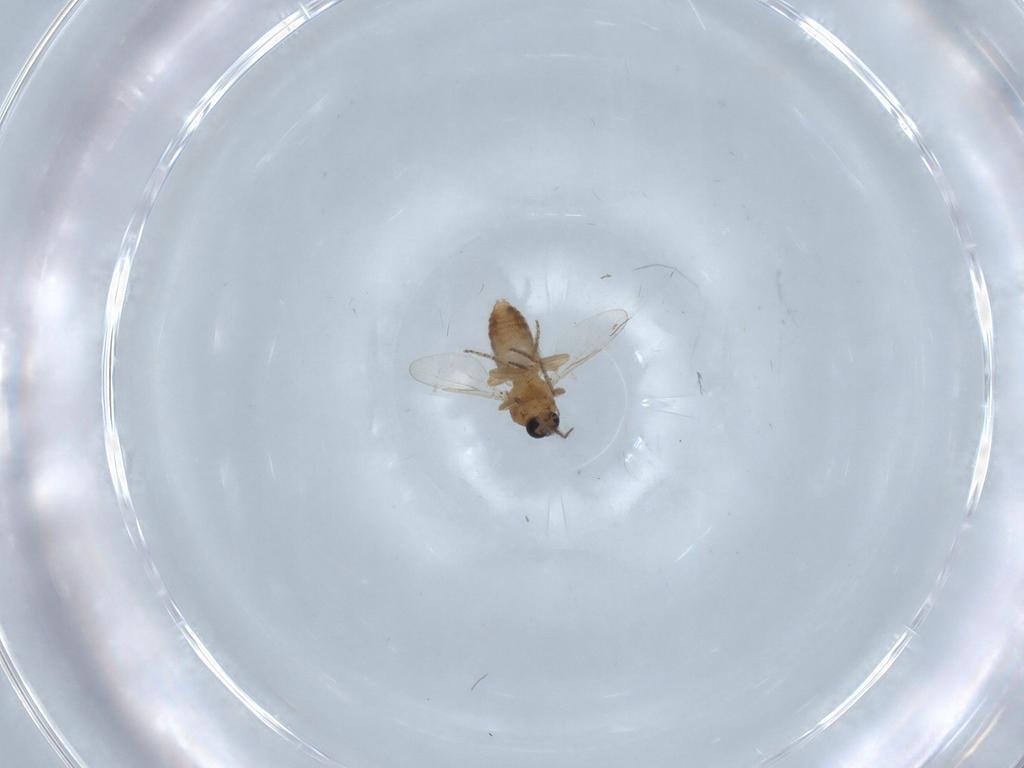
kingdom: Animalia
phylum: Arthropoda
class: Insecta
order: Diptera
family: Ceratopogonidae
